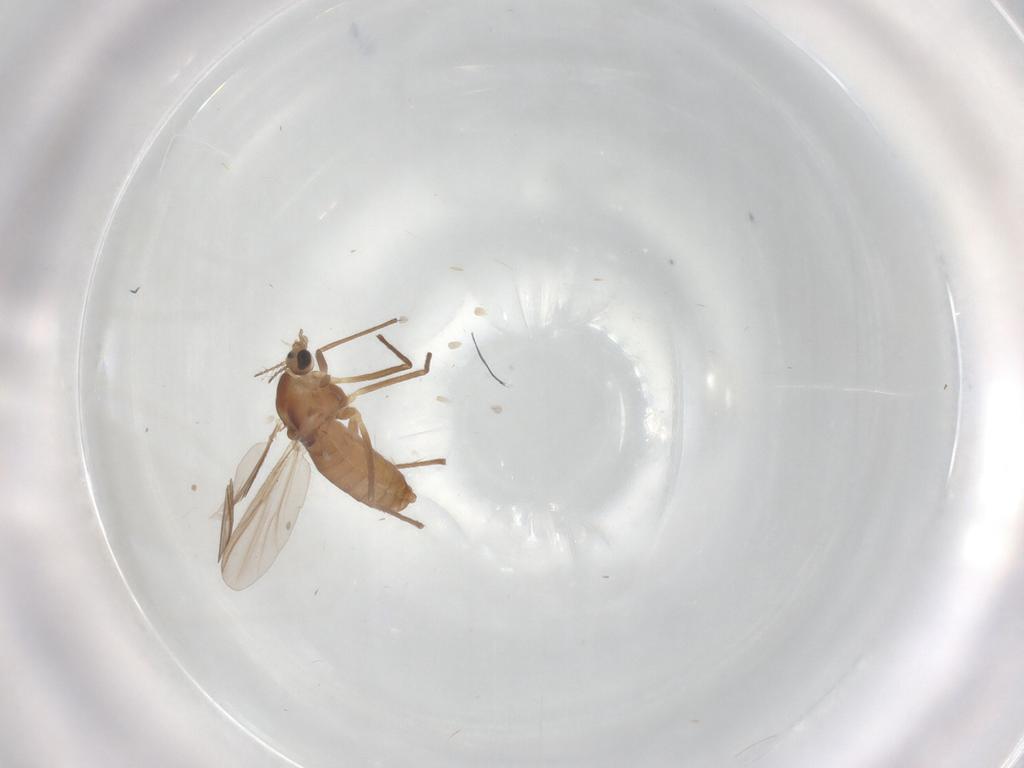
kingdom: Animalia
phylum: Arthropoda
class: Insecta
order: Diptera
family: Chironomidae
